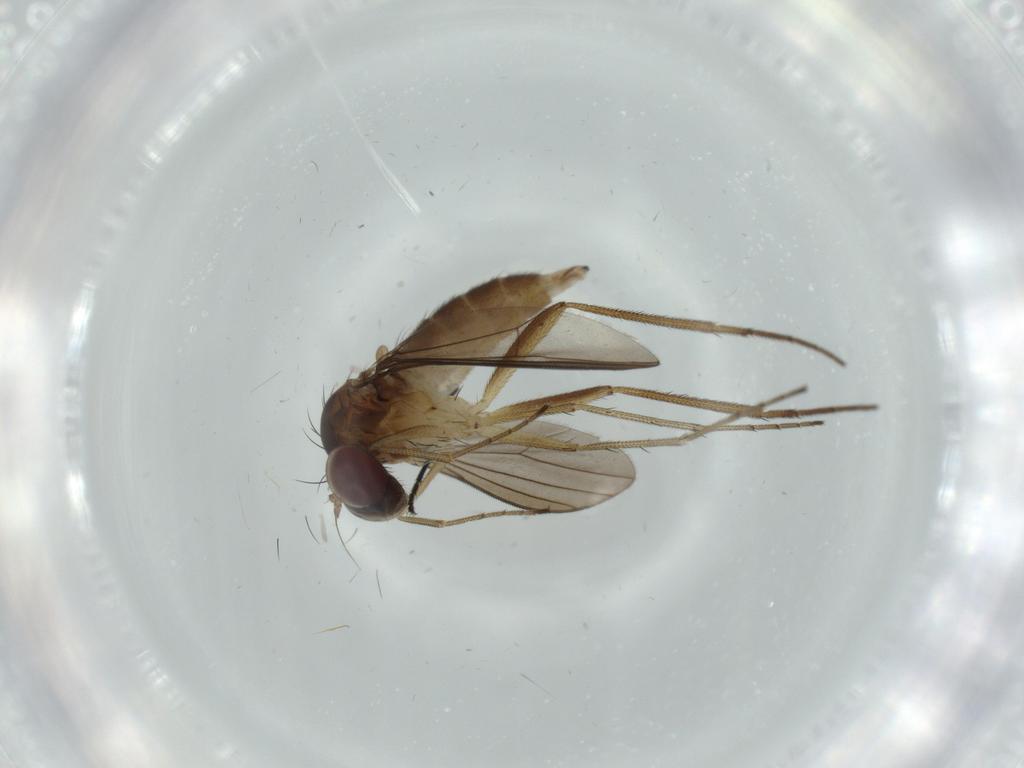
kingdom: Animalia
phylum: Arthropoda
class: Insecta
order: Diptera
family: Dolichopodidae
